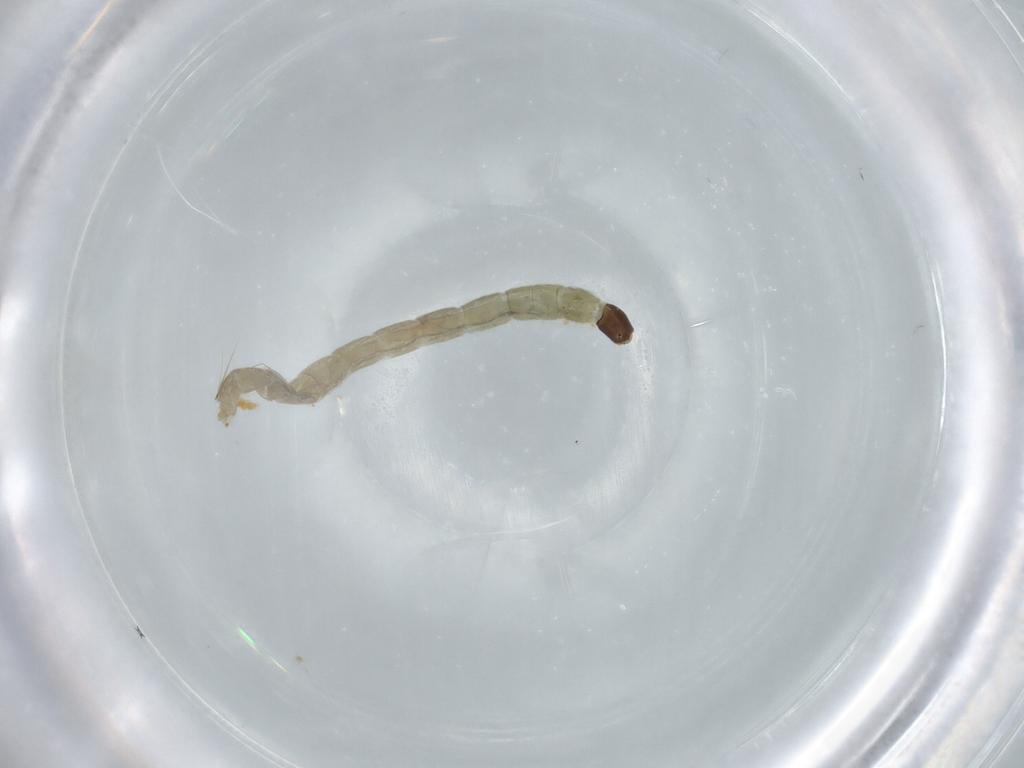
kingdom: Animalia
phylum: Arthropoda
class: Insecta
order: Diptera
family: Chironomidae
